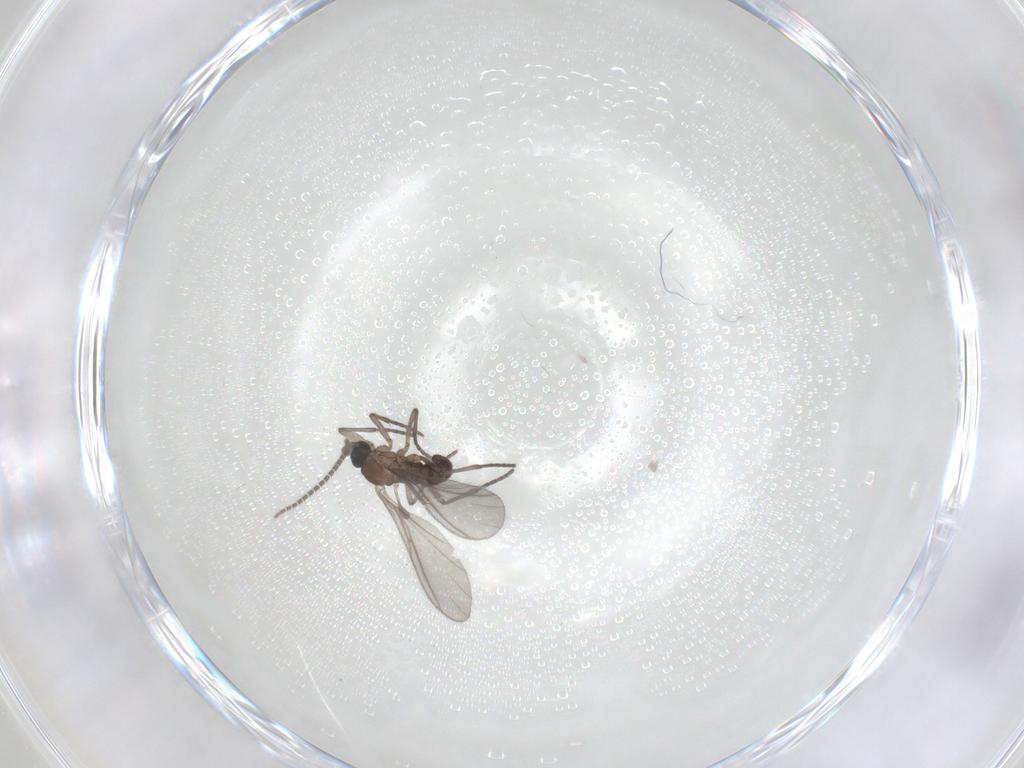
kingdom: Animalia
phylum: Arthropoda
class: Insecta
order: Diptera
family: Sciaridae
